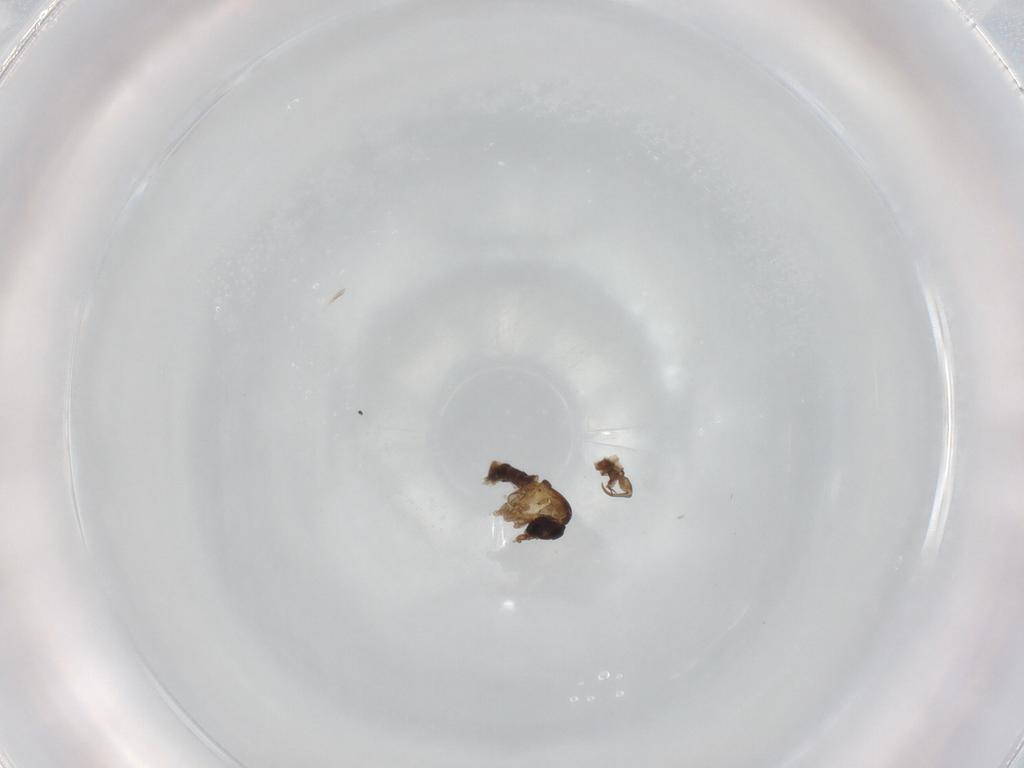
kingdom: Animalia
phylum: Arthropoda
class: Insecta
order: Diptera
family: Psychodidae
